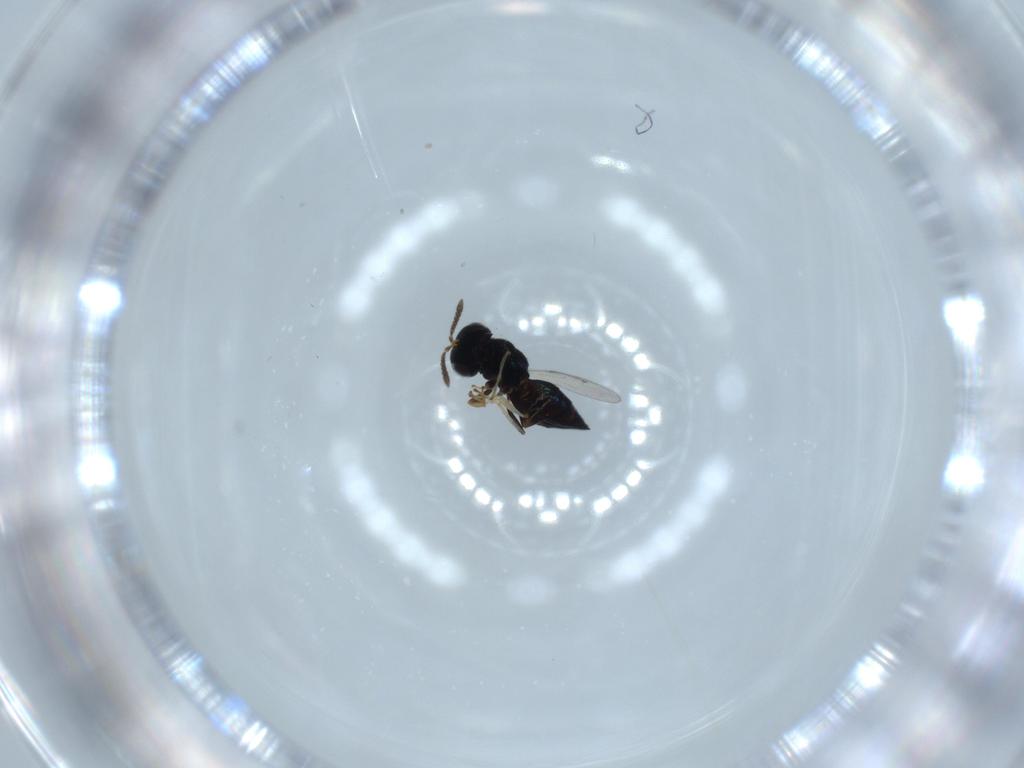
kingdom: Animalia
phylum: Arthropoda
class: Insecta
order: Hymenoptera
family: Pteromalidae
